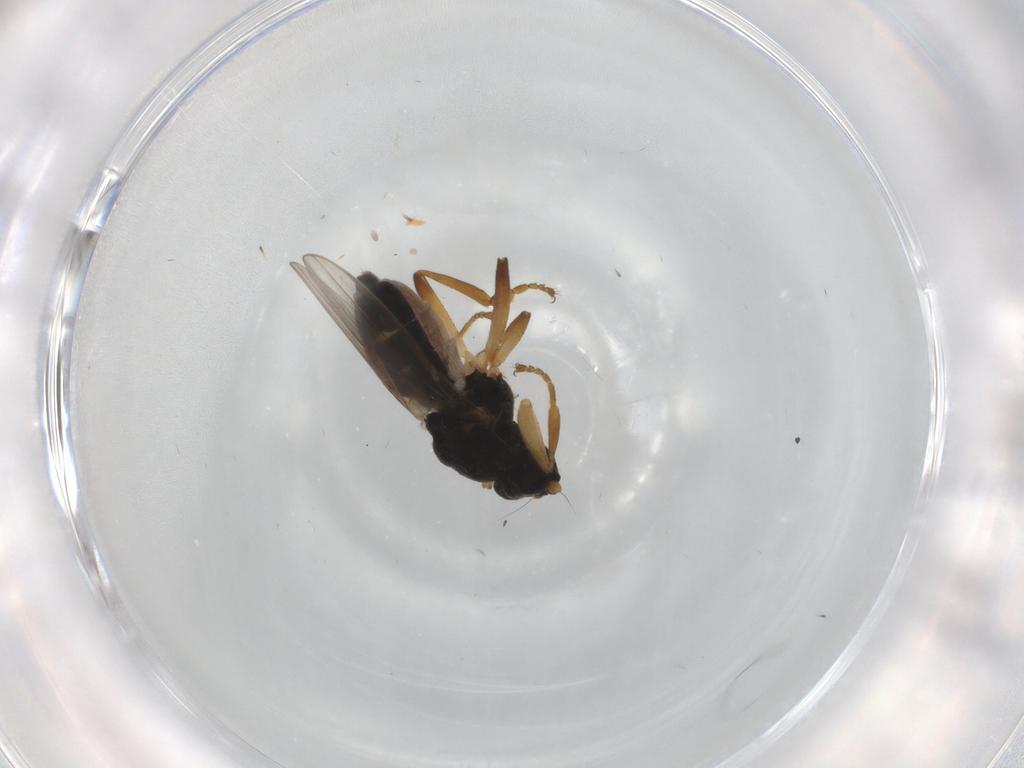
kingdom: Animalia
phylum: Arthropoda
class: Insecta
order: Diptera
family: Sphaeroceridae
